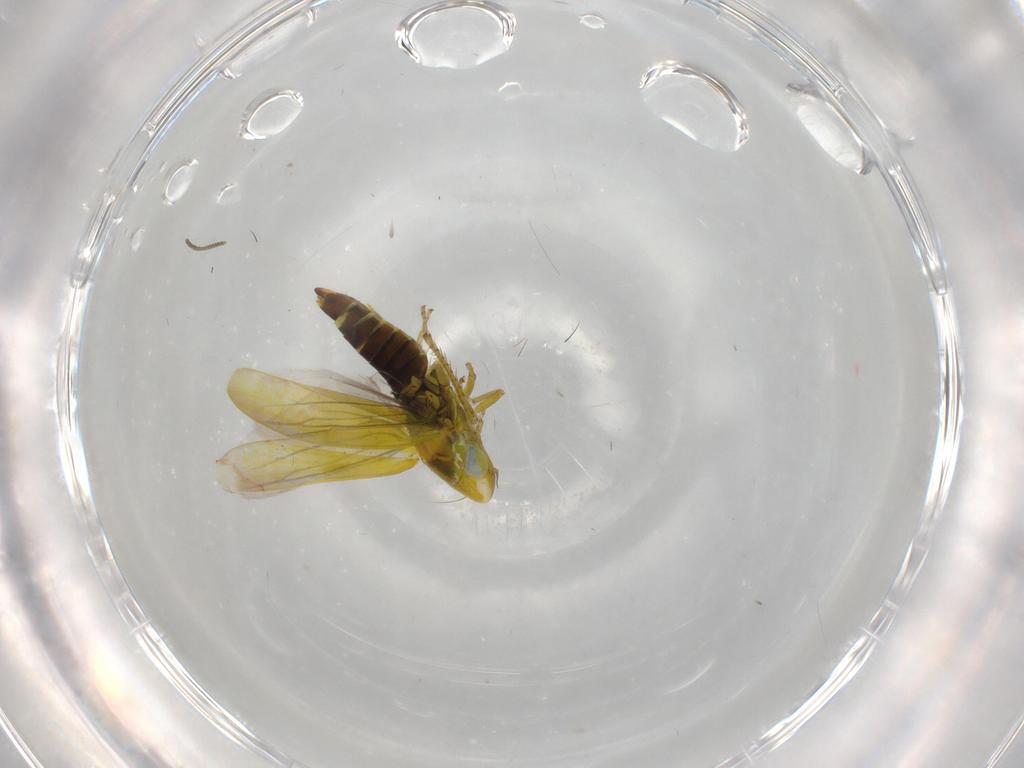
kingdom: Animalia
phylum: Arthropoda
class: Insecta
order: Hemiptera
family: Cicadellidae
